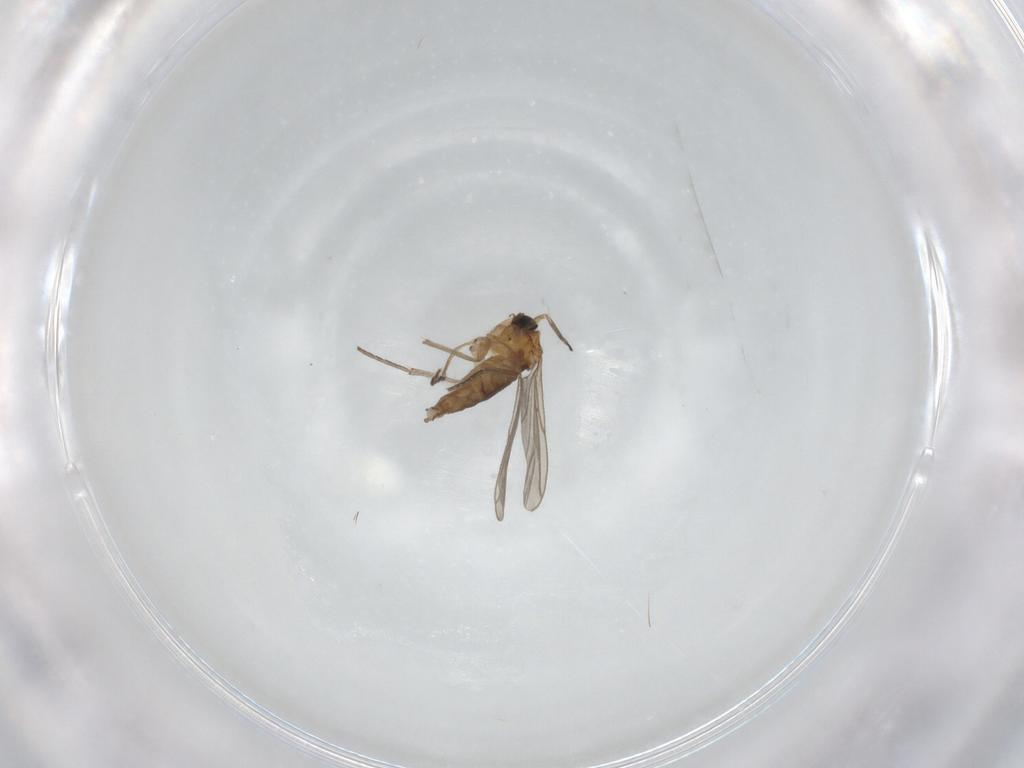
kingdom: Animalia
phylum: Arthropoda
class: Insecta
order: Diptera
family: Sciaridae
